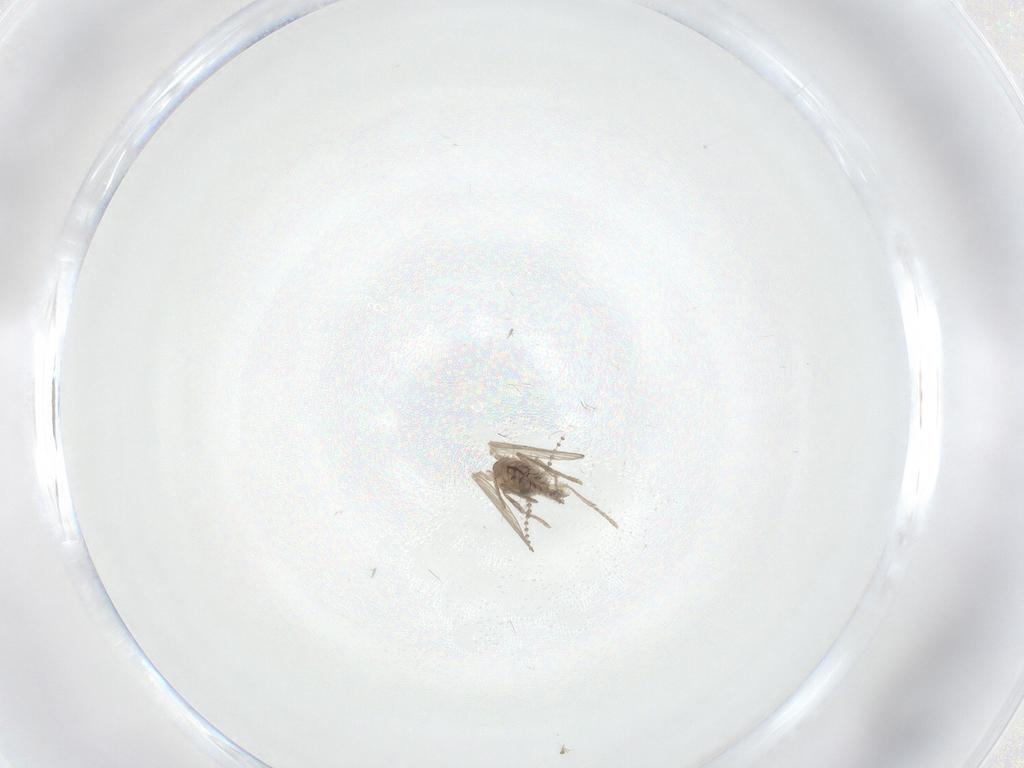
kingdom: Animalia
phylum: Arthropoda
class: Insecta
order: Diptera
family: Psychodidae
